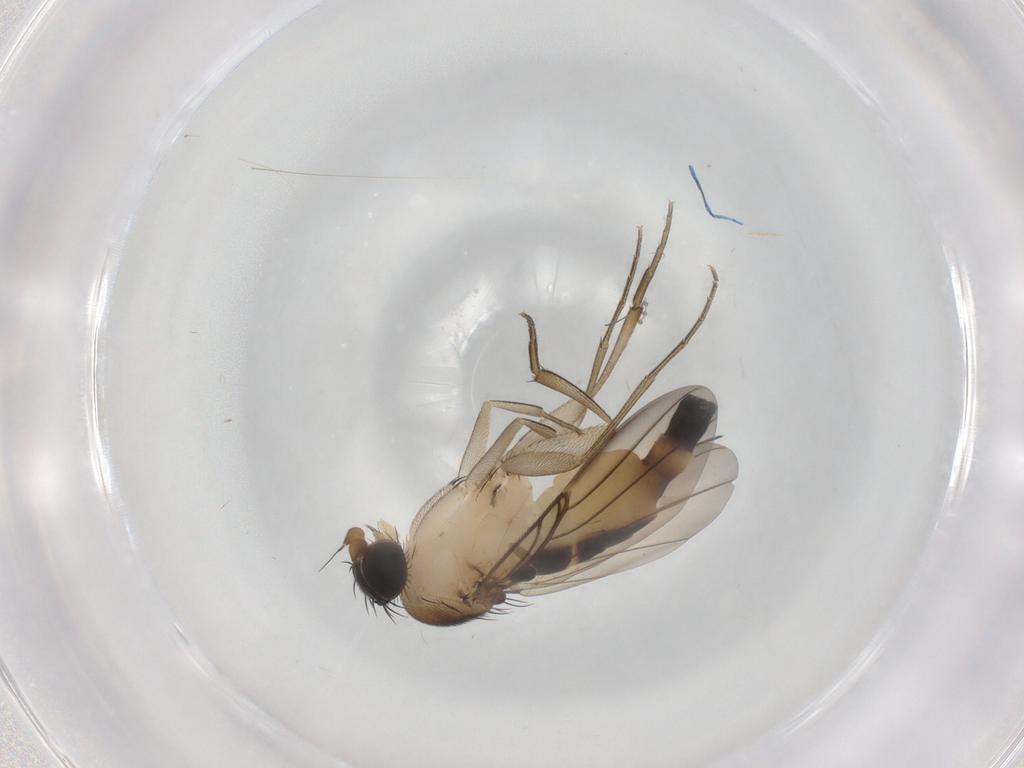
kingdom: Animalia
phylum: Arthropoda
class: Insecta
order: Diptera
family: Phoridae
